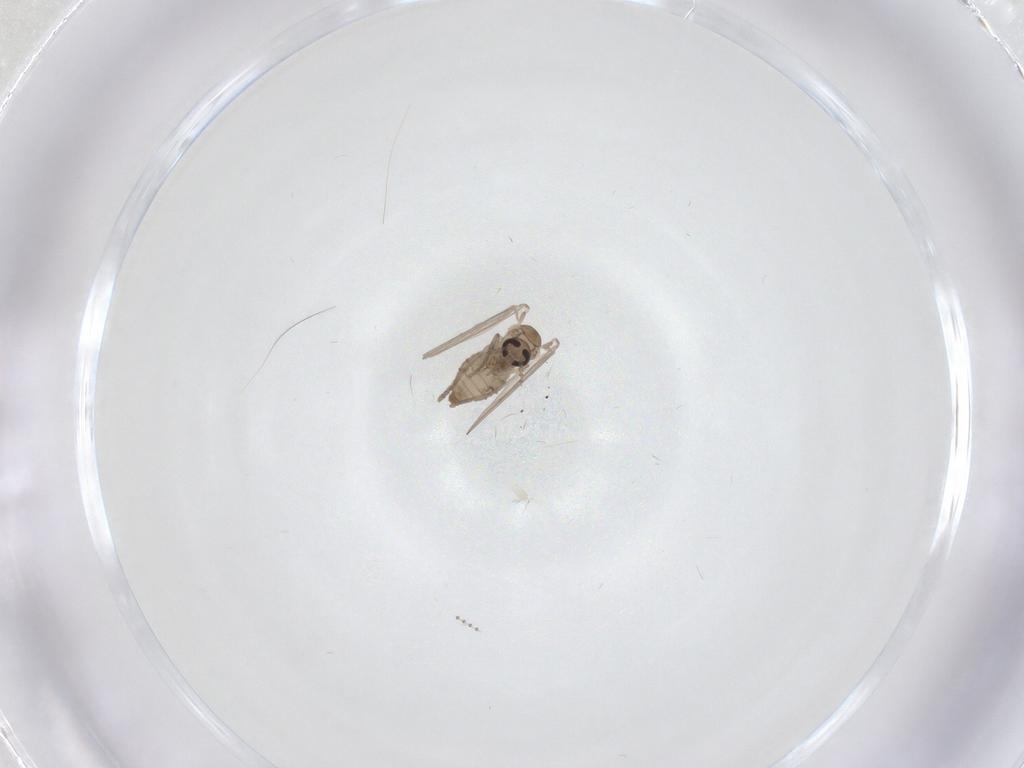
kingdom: Animalia
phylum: Arthropoda
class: Insecta
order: Diptera
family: Psychodidae
